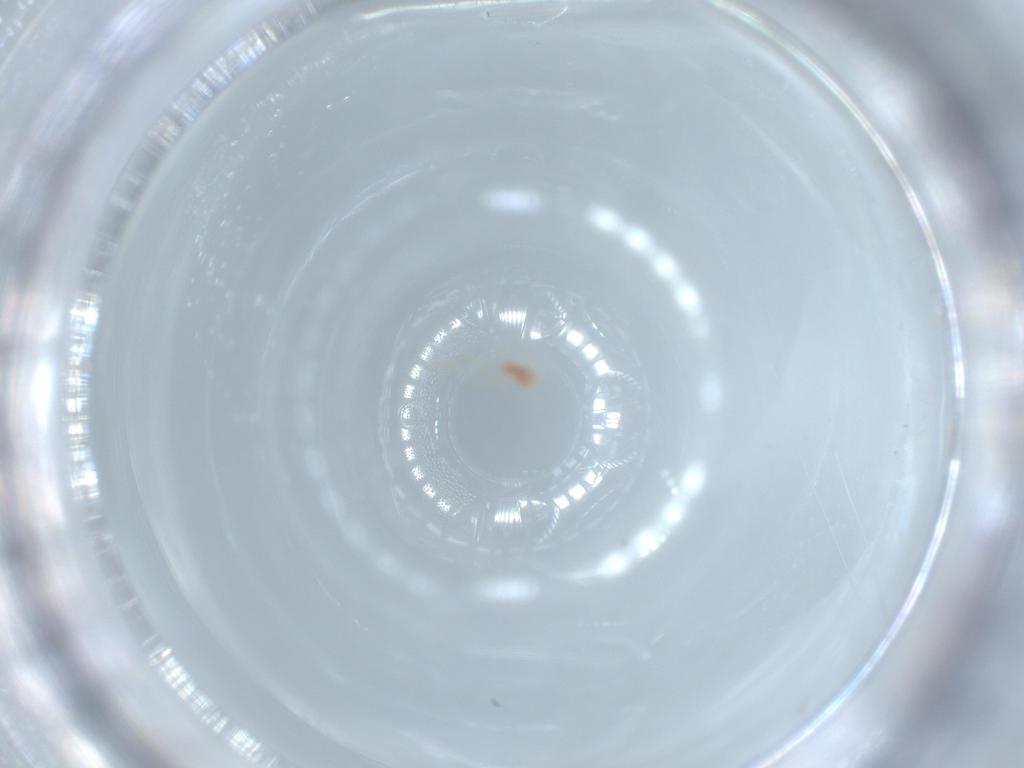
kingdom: Animalia
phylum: Arthropoda
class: Insecta
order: Hemiptera
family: Pseudococcidae
